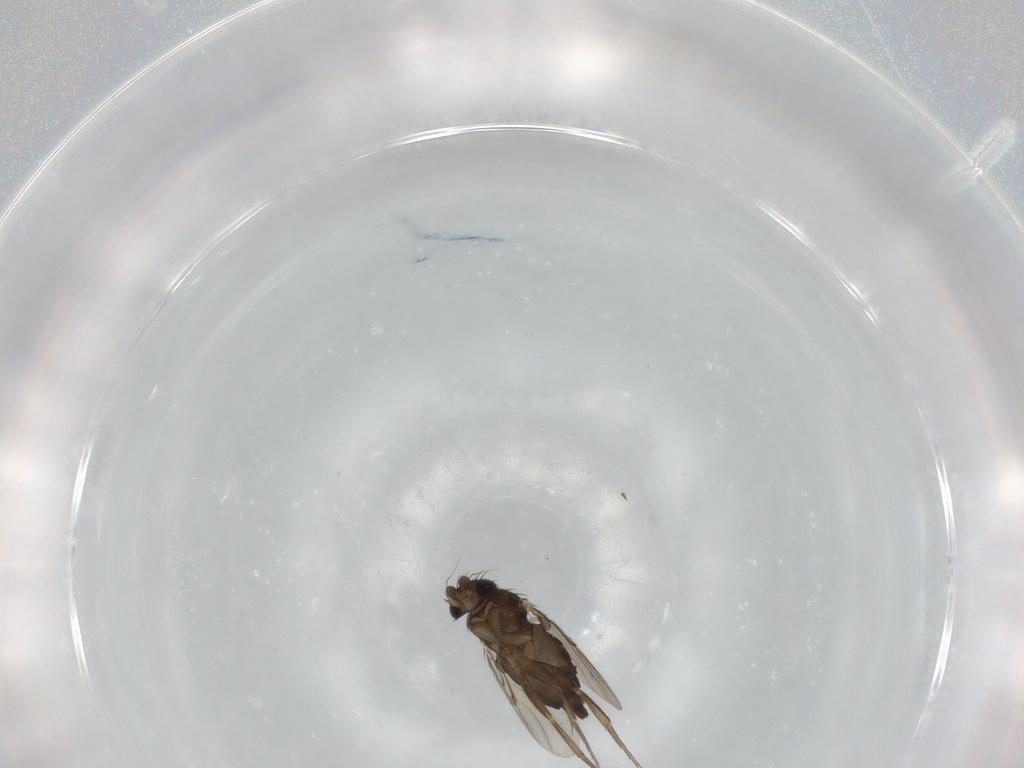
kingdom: Animalia
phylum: Arthropoda
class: Insecta
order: Diptera
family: Phoridae
